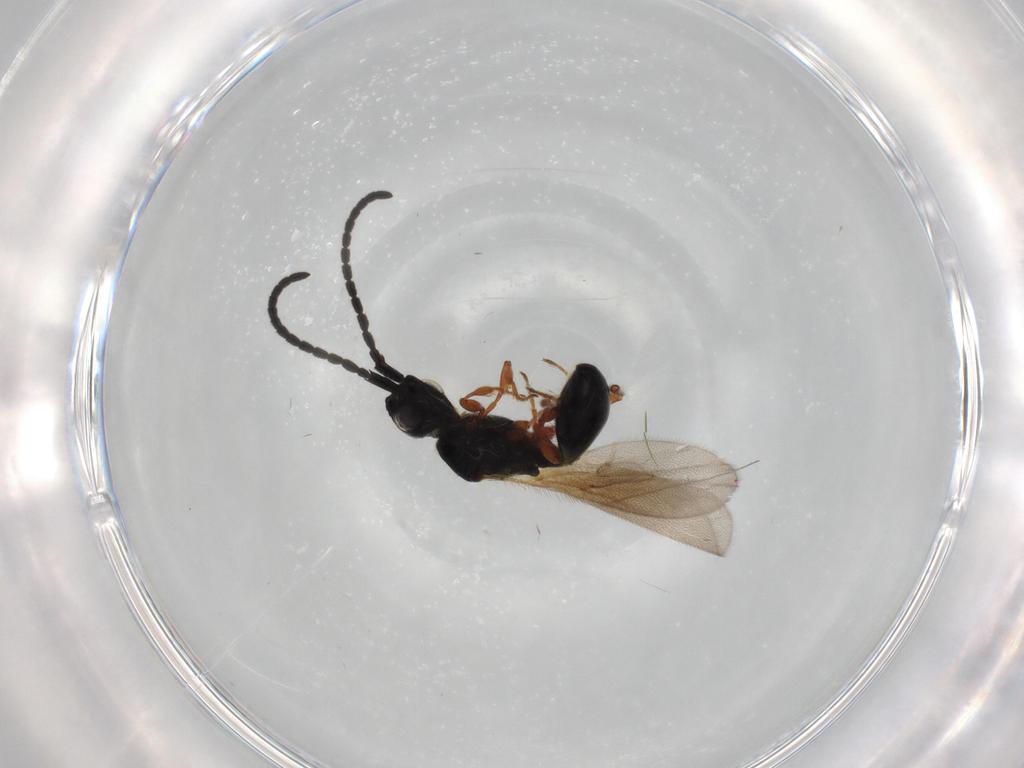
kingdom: Animalia
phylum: Arthropoda
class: Insecta
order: Hymenoptera
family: Diapriidae
